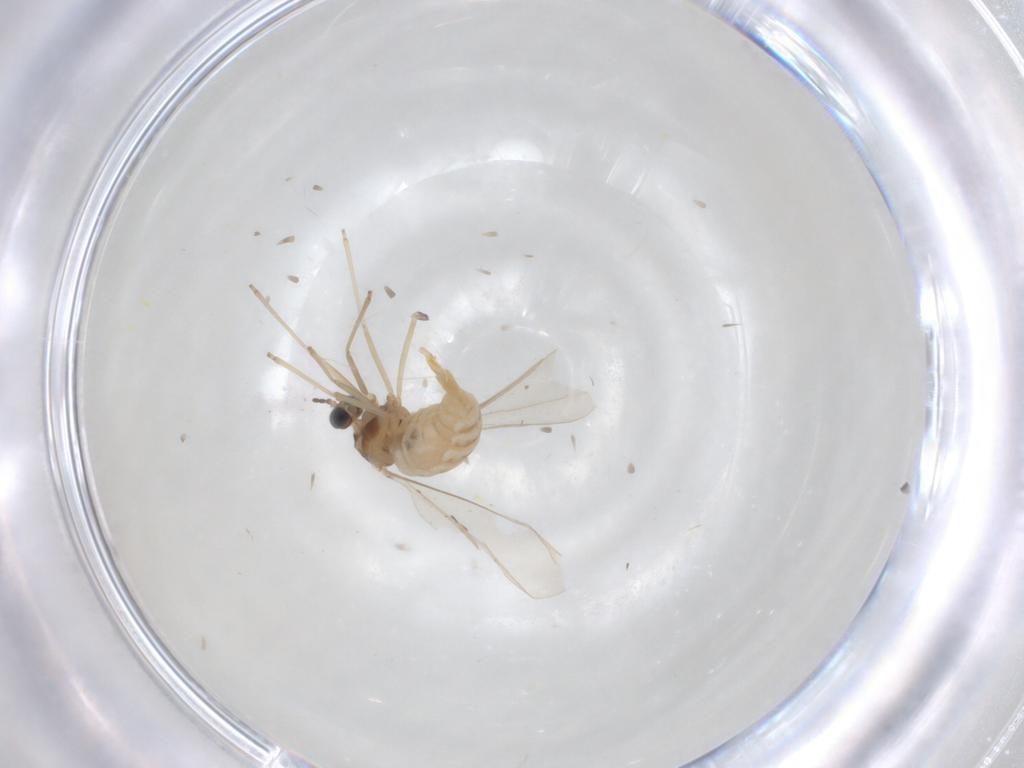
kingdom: Animalia
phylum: Arthropoda
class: Insecta
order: Diptera
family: Cecidomyiidae
